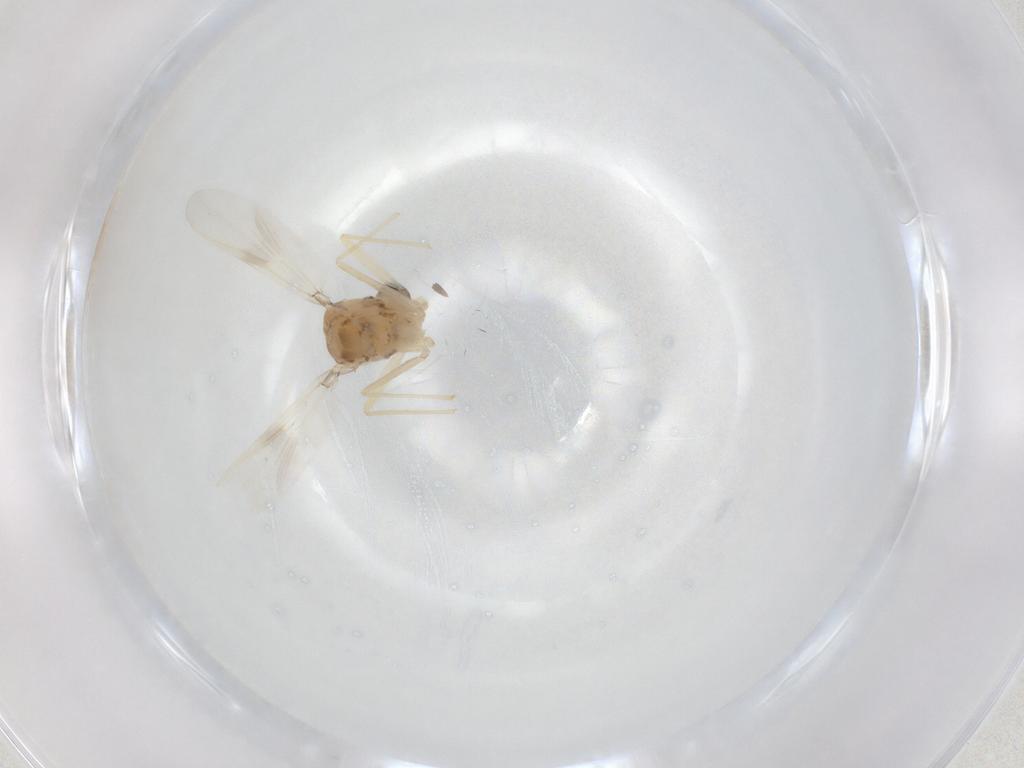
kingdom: Animalia
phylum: Arthropoda
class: Insecta
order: Diptera
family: Chironomidae
